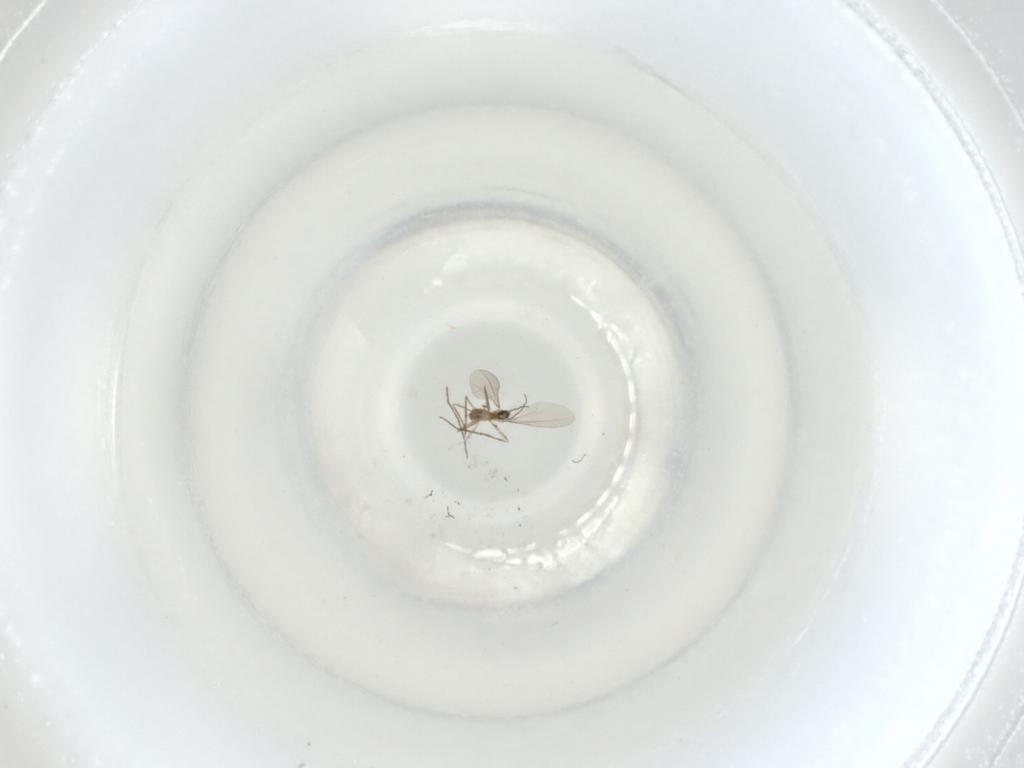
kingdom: Animalia
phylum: Arthropoda
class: Insecta
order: Diptera
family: Cecidomyiidae
